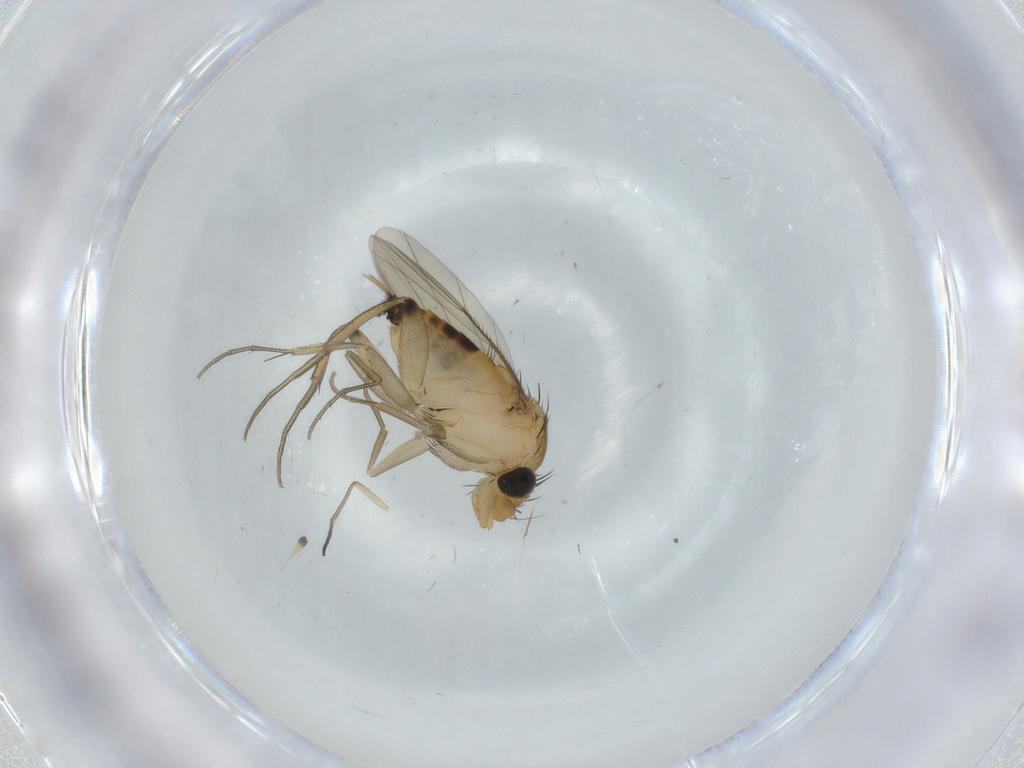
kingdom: Animalia
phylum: Arthropoda
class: Insecta
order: Diptera
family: Phoridae
